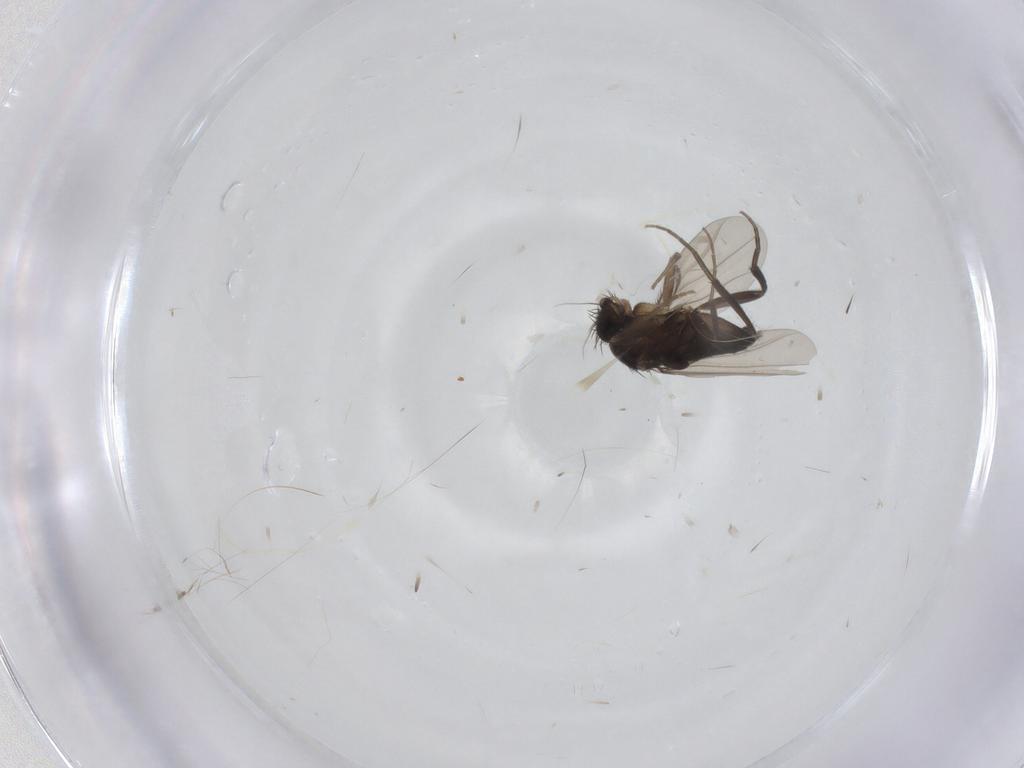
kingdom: Animalia
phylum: Arthropoda
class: Insecta
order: Diptera
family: Phoridae
